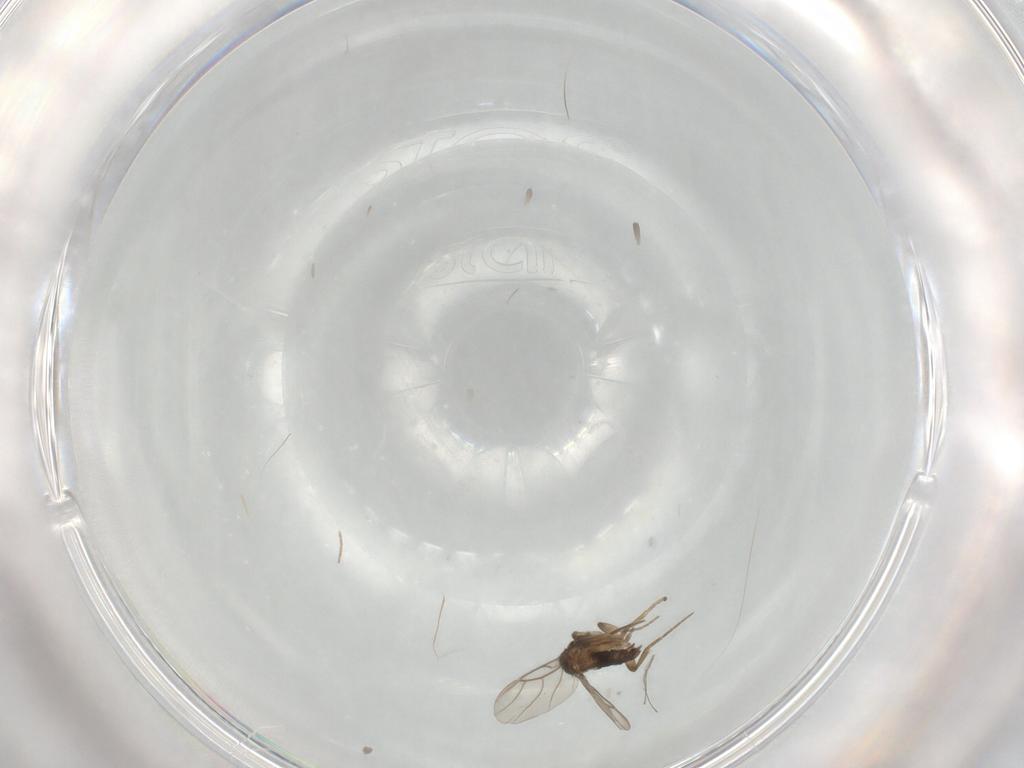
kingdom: Animalia
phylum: Arthropoda
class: Insecta
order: Diptera
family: Phoridae
